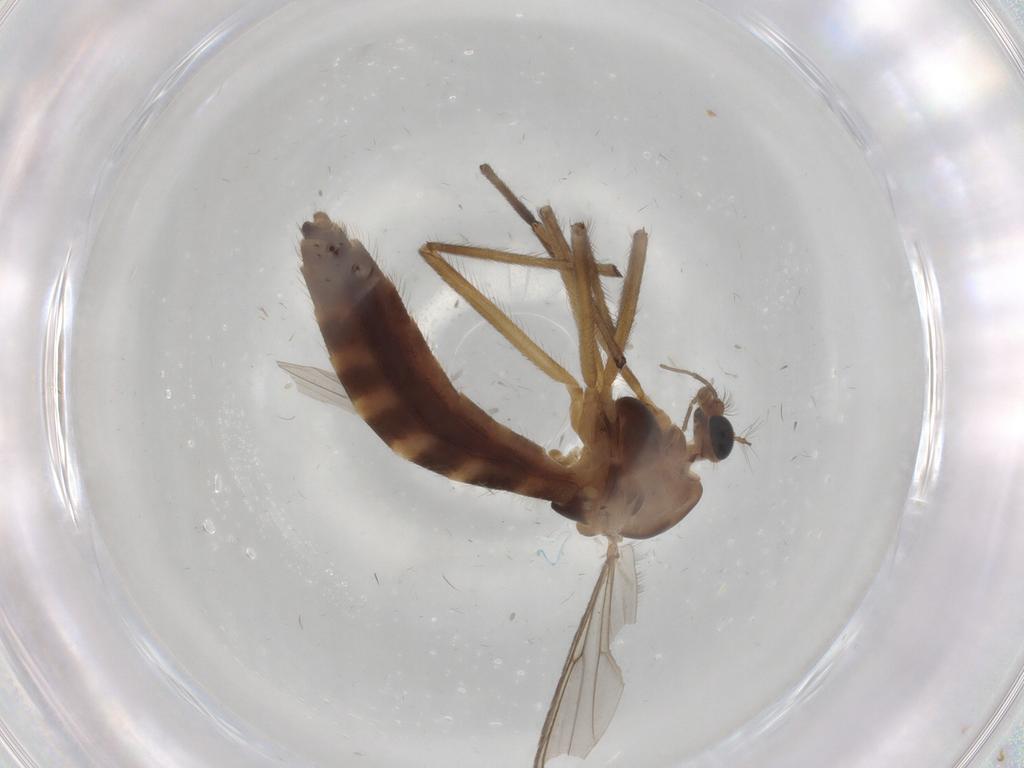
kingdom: Animalia
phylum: Arthropoda
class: Insecta
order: Diptera
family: Chironomidae
